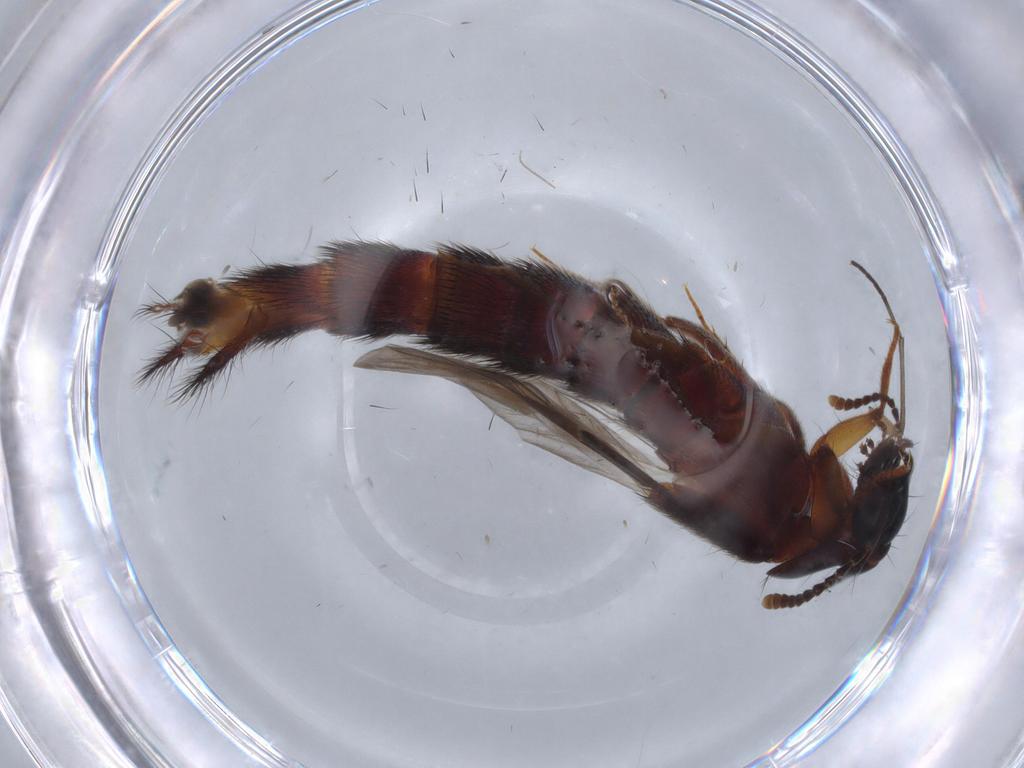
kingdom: Animalia
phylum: Arthropoda
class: Insecta
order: Coleoptera
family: Staphylinidae
